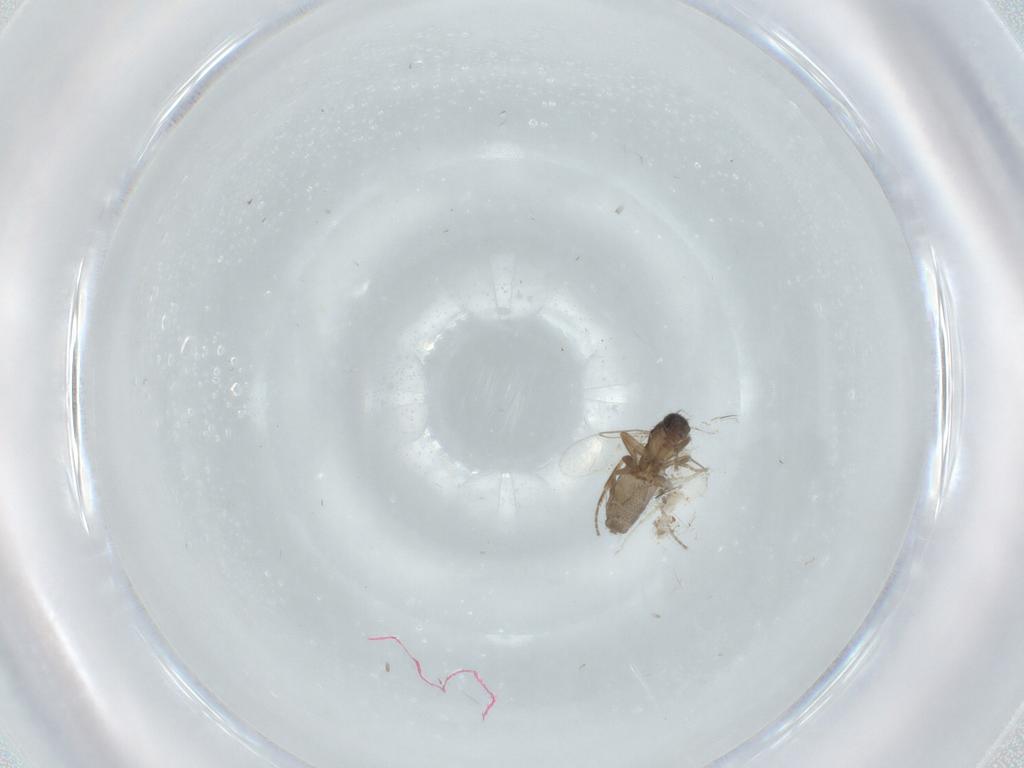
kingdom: Animalia
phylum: Arthropoda
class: Insecta
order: Diptera
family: Phoridae
